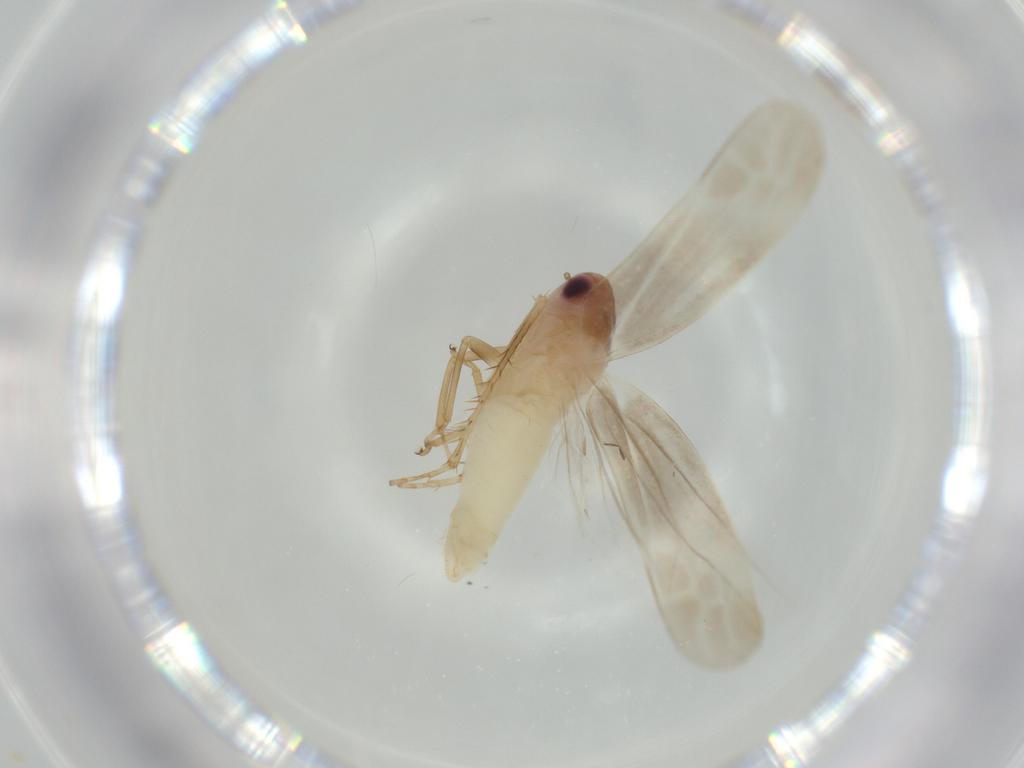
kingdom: Animalia
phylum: Arthropoda
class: Insecta
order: Hemiptera
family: Cicadellidae
